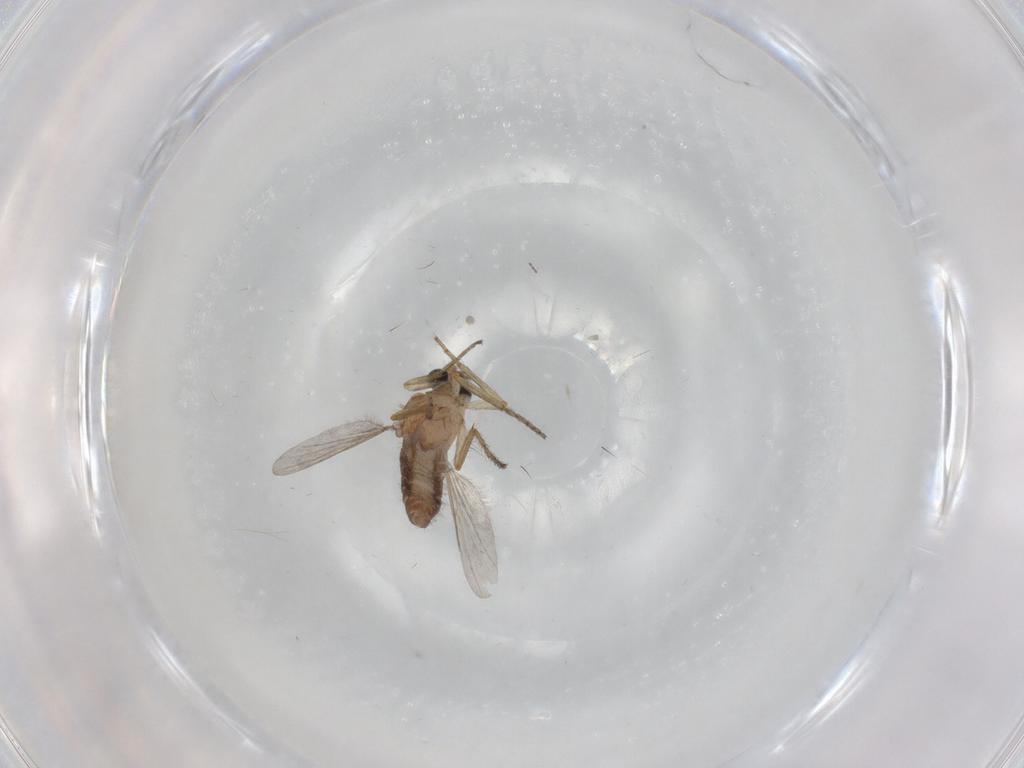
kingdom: Animalia
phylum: Arthropoda
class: Insecta
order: Diptera
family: Ceratopogonidae
